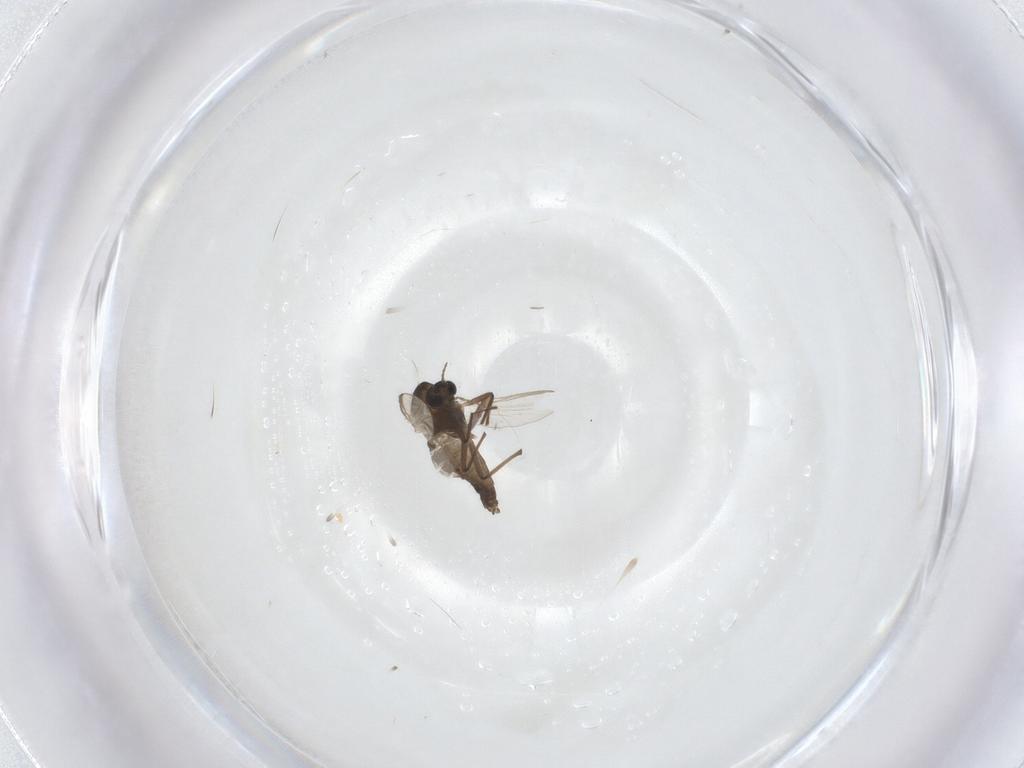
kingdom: Animalia
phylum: Arthropoda
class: Insecta
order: Diptera
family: Chironomidae
